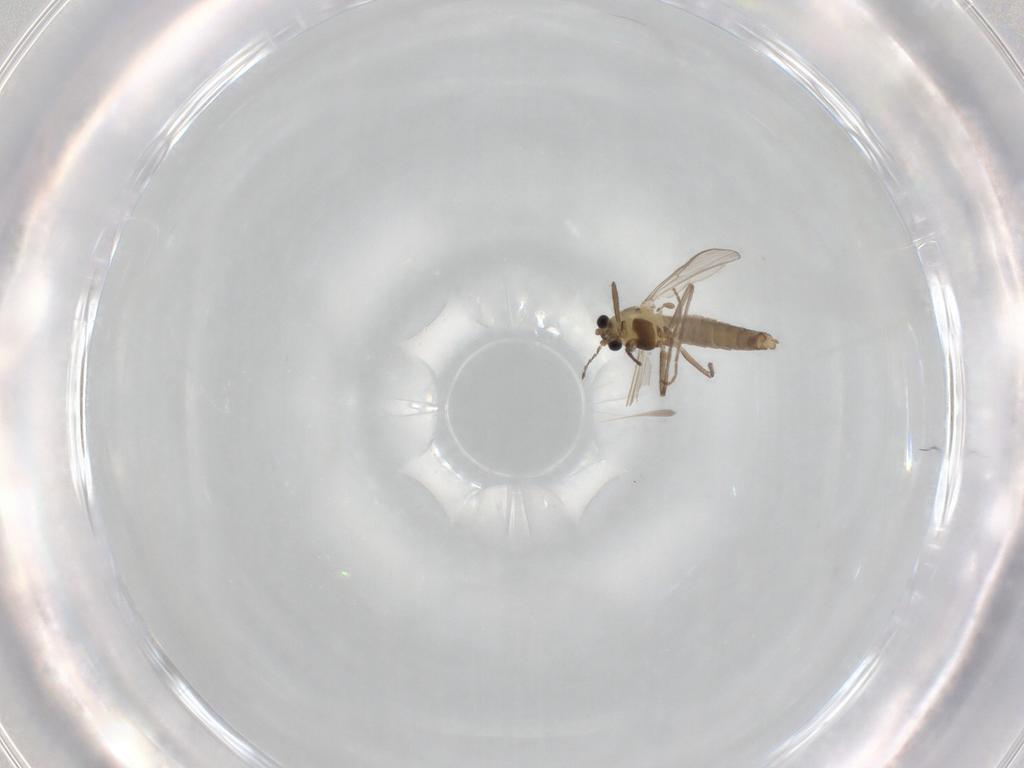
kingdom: Animalia
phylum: Arthropoda
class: Insecta
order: Diptera
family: Chironomidae
